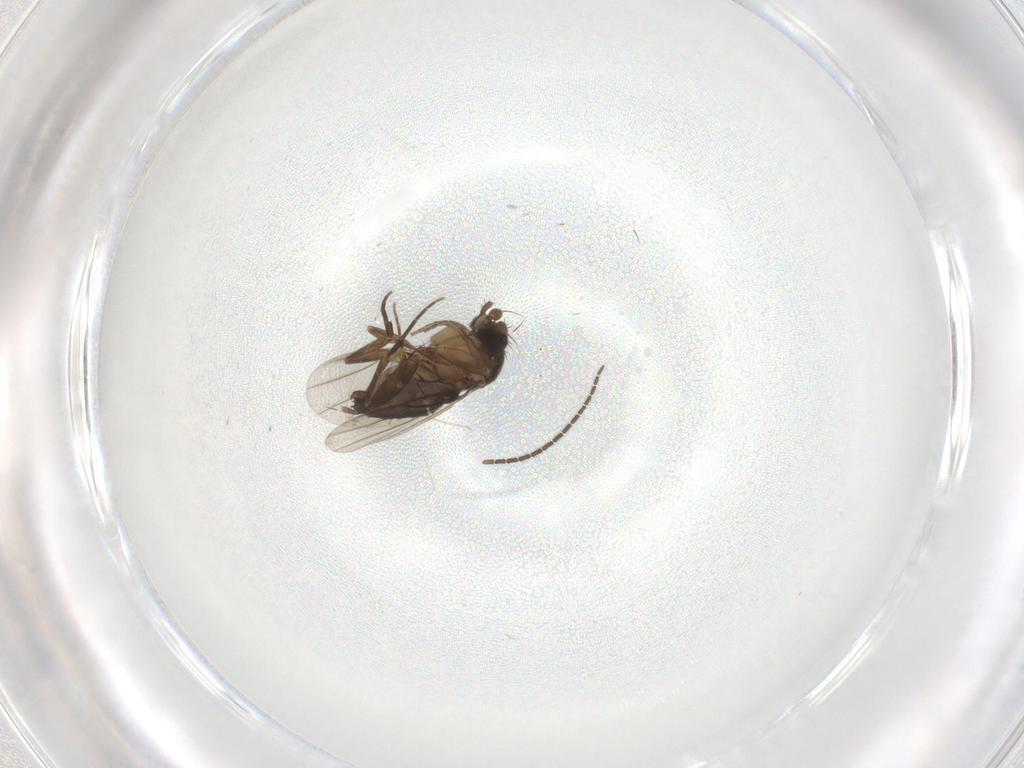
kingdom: Animalia
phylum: Arthropoda
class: Insecta
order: Diptera
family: Phoridae
